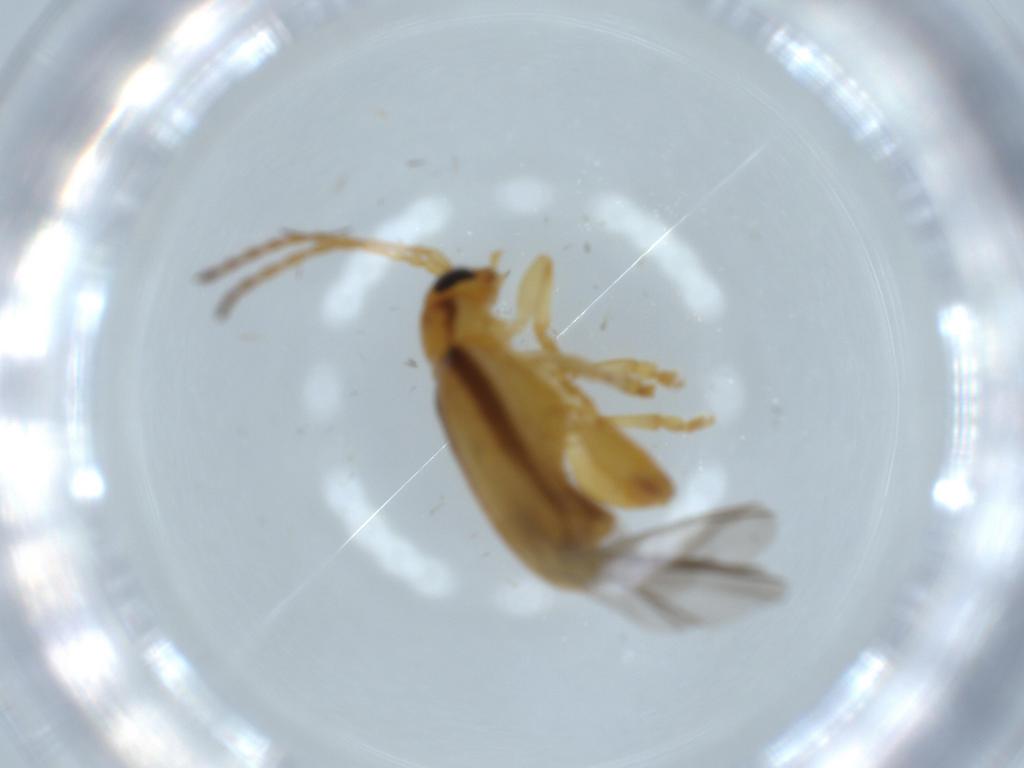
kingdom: Animalia
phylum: Arthropoda
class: Insecta
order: Coleoptera
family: Chrysomelidae
